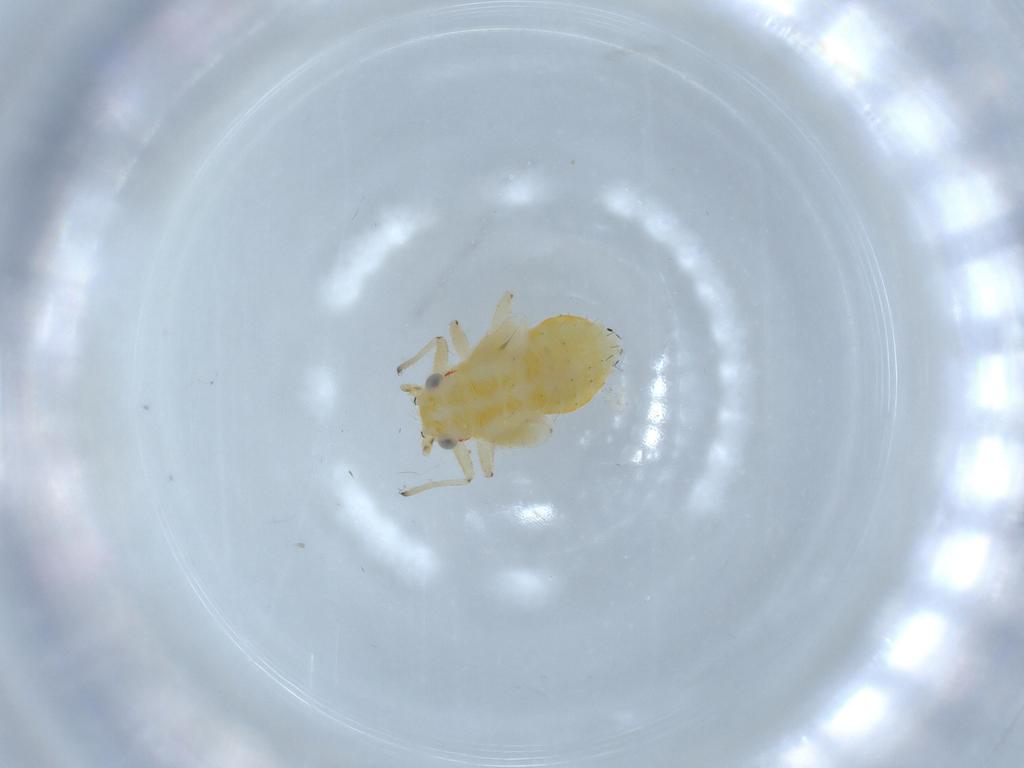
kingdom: Animalia
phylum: Arthropoda
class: Insecta
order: Hemiptera
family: Psyllidae
